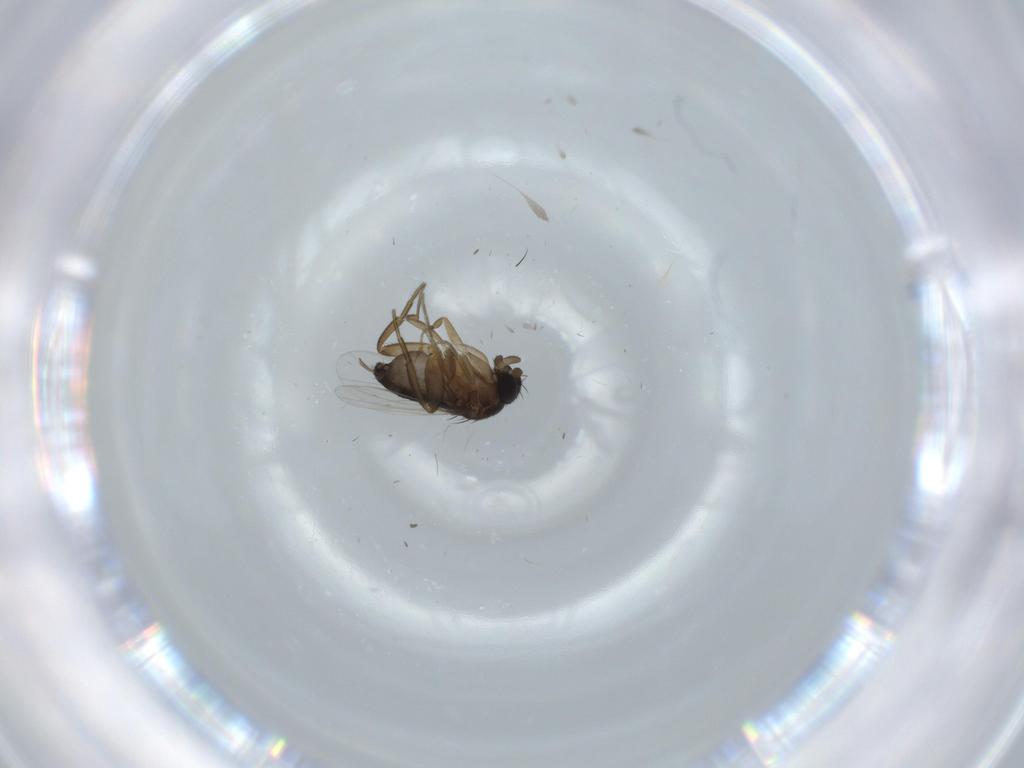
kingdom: Animalia
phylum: Arthropoda
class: Insecta
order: Diptera
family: Phoridae
